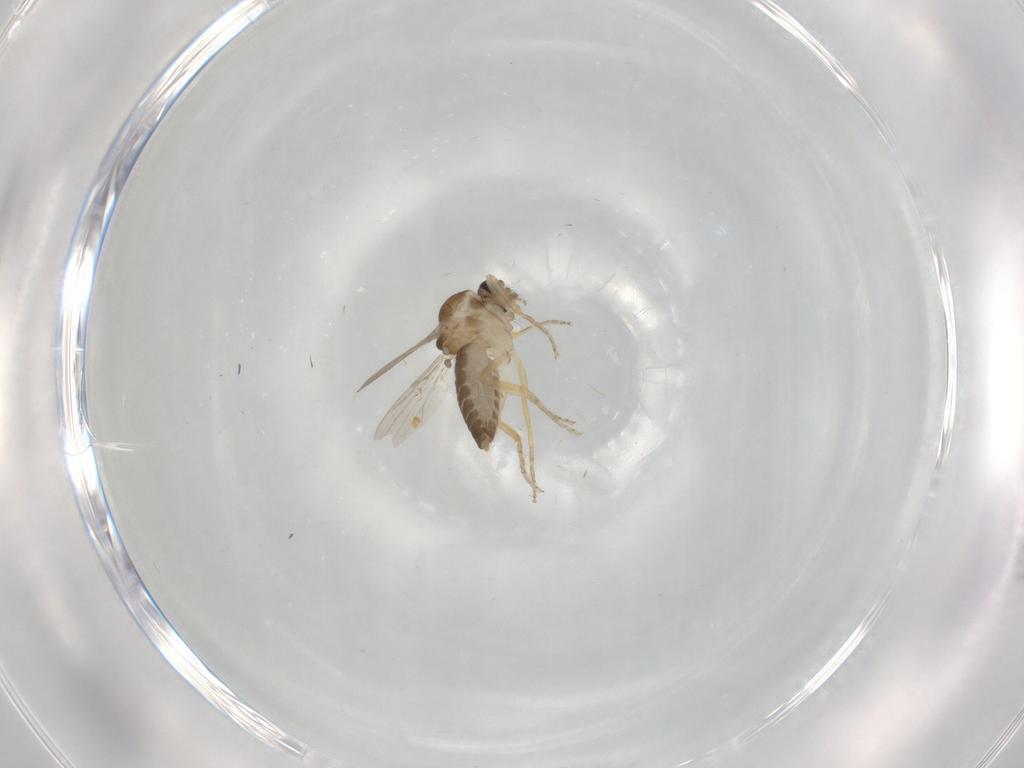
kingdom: Animalia
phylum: Arthropoda
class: Insecta
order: Diptera
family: Ceratopogonidae
